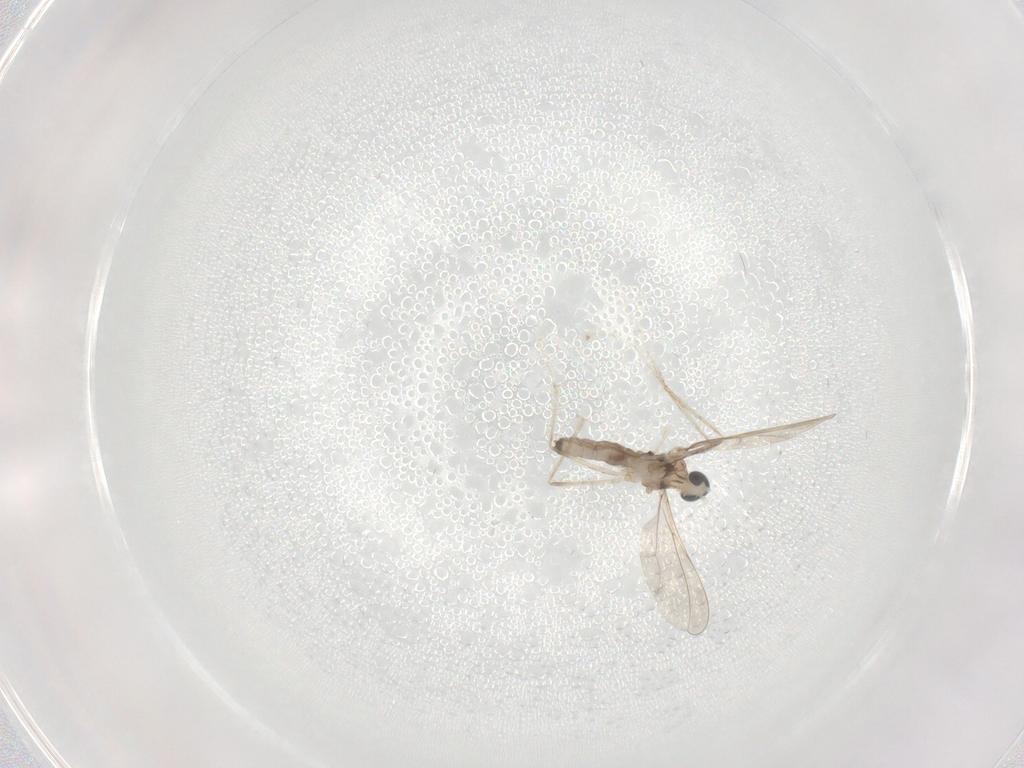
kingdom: Animalia
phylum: Arthropoda
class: Insecta
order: Diptera
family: Cecidomyiidae
